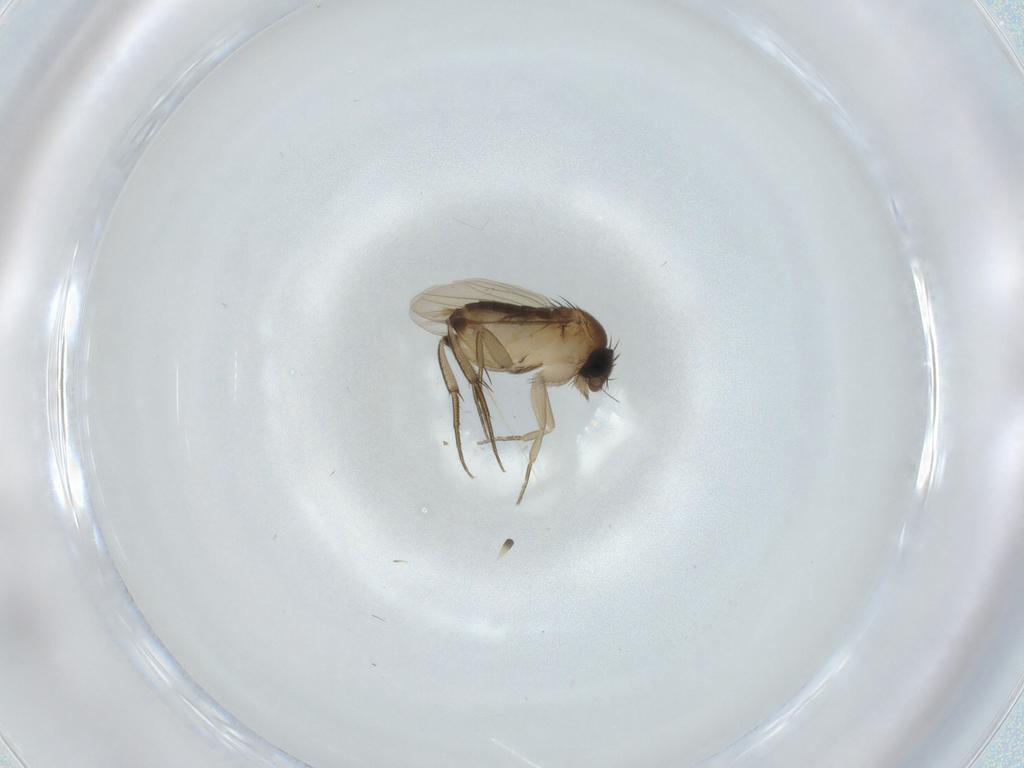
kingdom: Animalia
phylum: Arthropoda
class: Insecta
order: Diptera
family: Phoridae
